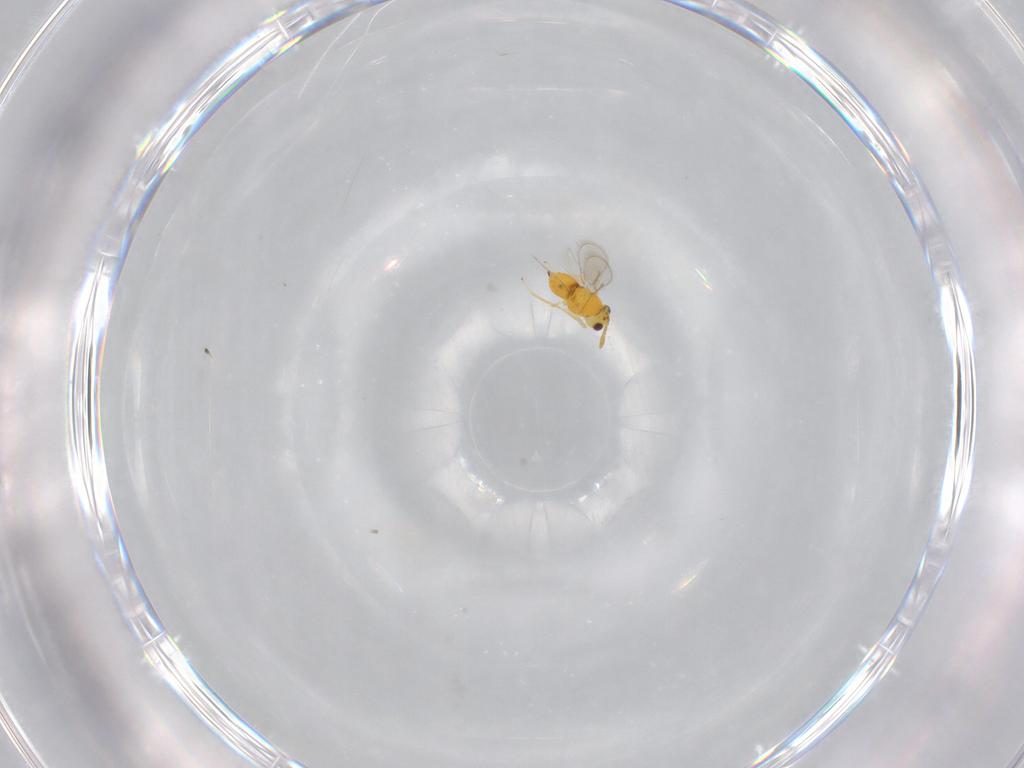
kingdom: Animalia
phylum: Arthropoda
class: Insecta
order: Hymenoptera
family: Aphelinidae
